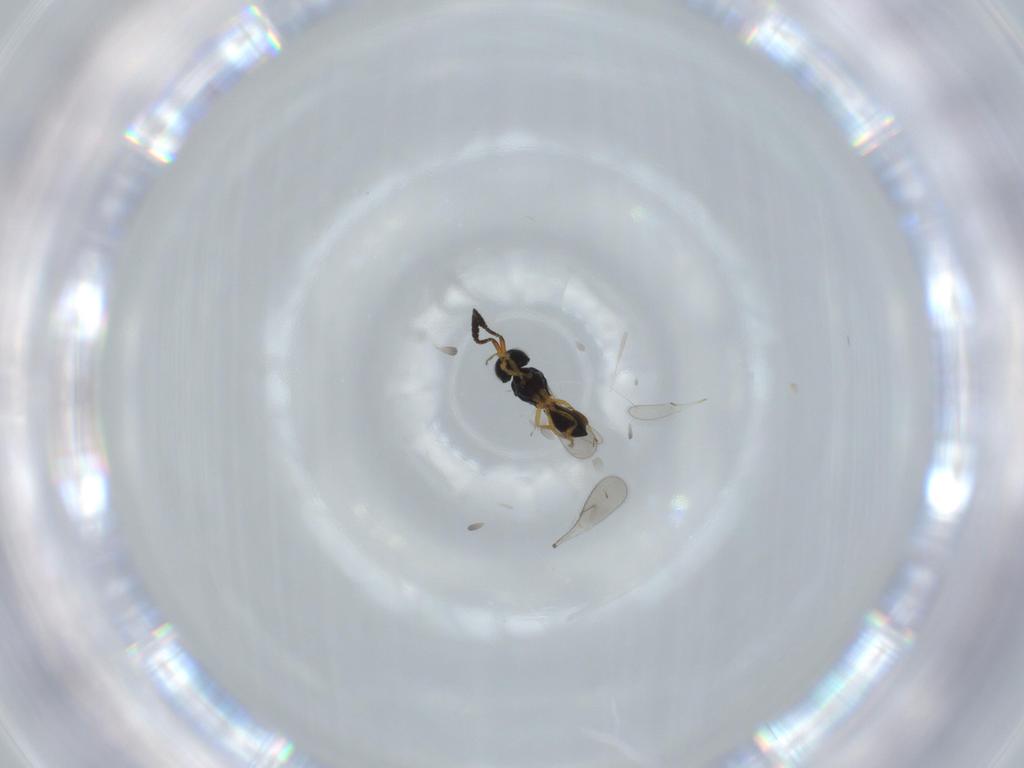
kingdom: Animalia
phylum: Arthropoda
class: Insecta
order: Hymenoptera
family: Scelionidae
